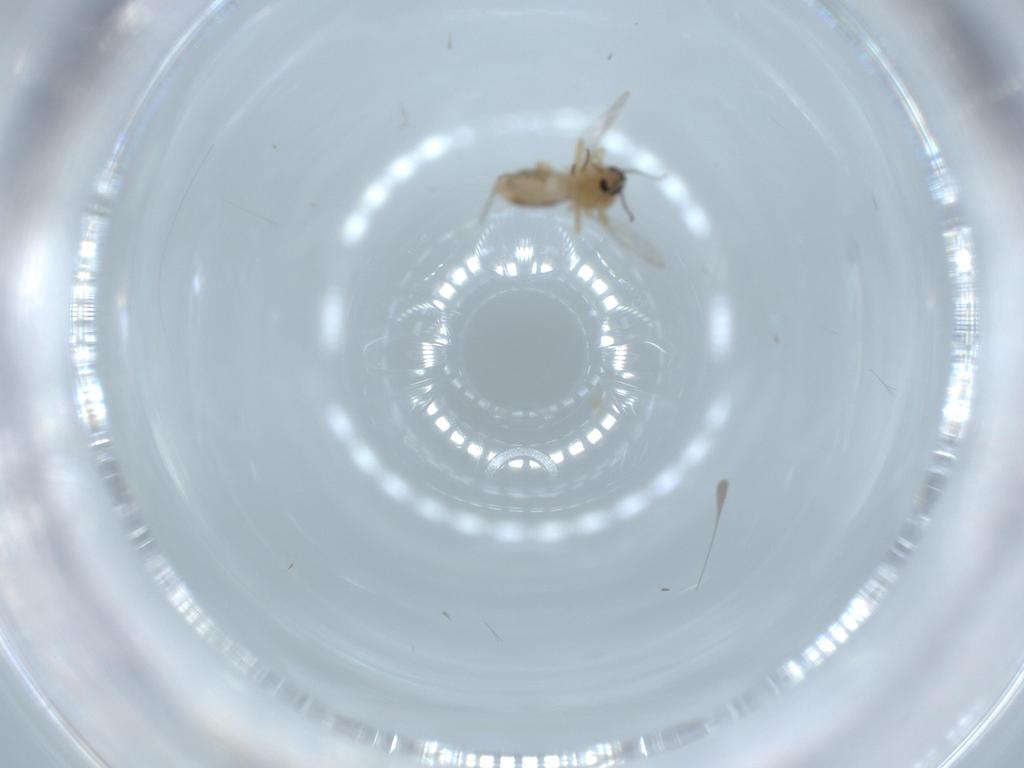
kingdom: Animalia
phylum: Arthropoda
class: Insecta
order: Diptera
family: Ceratopogonidae
